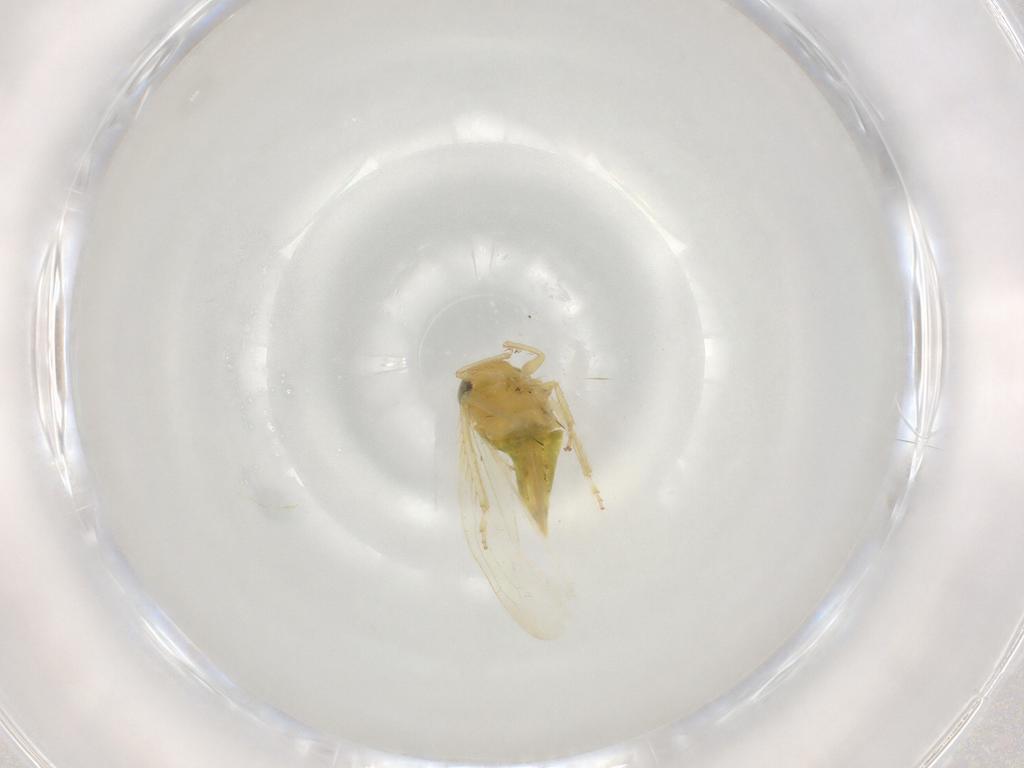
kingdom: Animalia
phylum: Arthropoda
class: Insecta
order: Hemiptera
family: Cicadellidae
